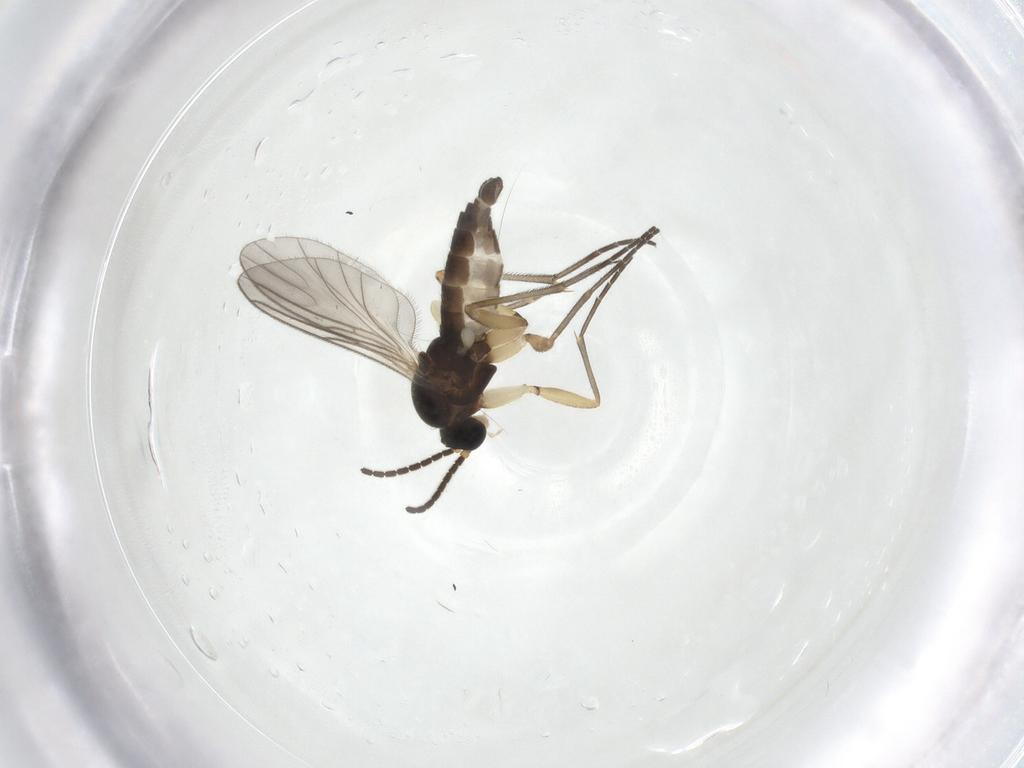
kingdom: Animalia
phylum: Arthropoda
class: Insecta
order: Diptera
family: Sciaridae
